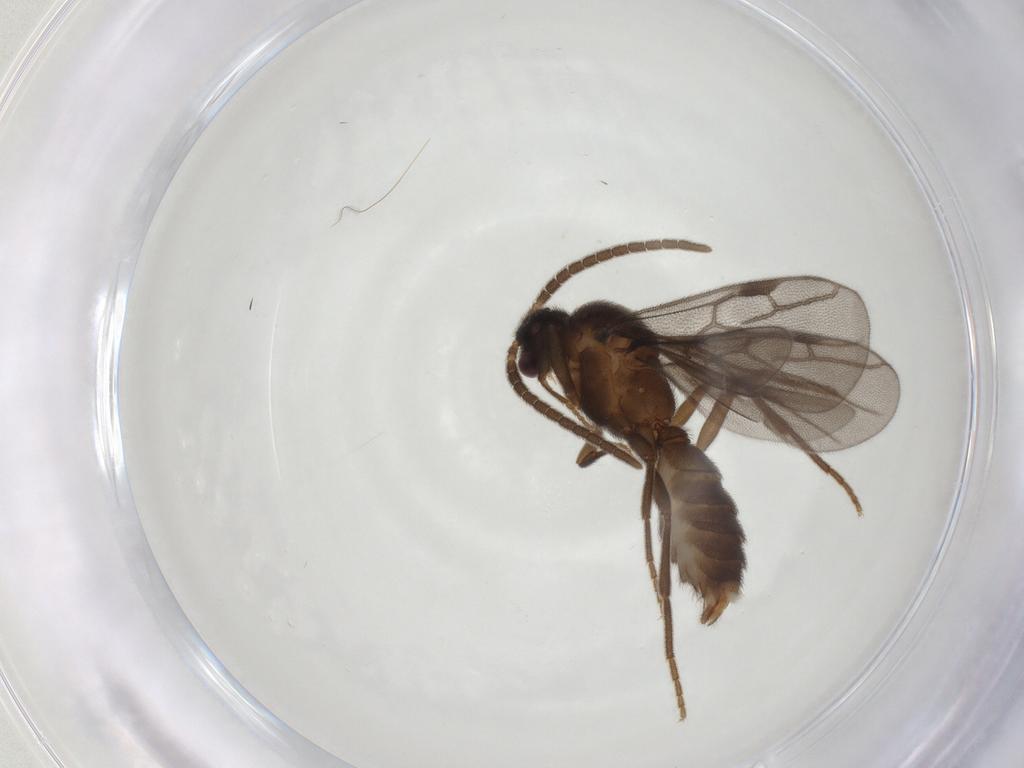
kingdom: Animalia
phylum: Arthropoda
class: Insecta
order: Hymenoptera
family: Formicidae
